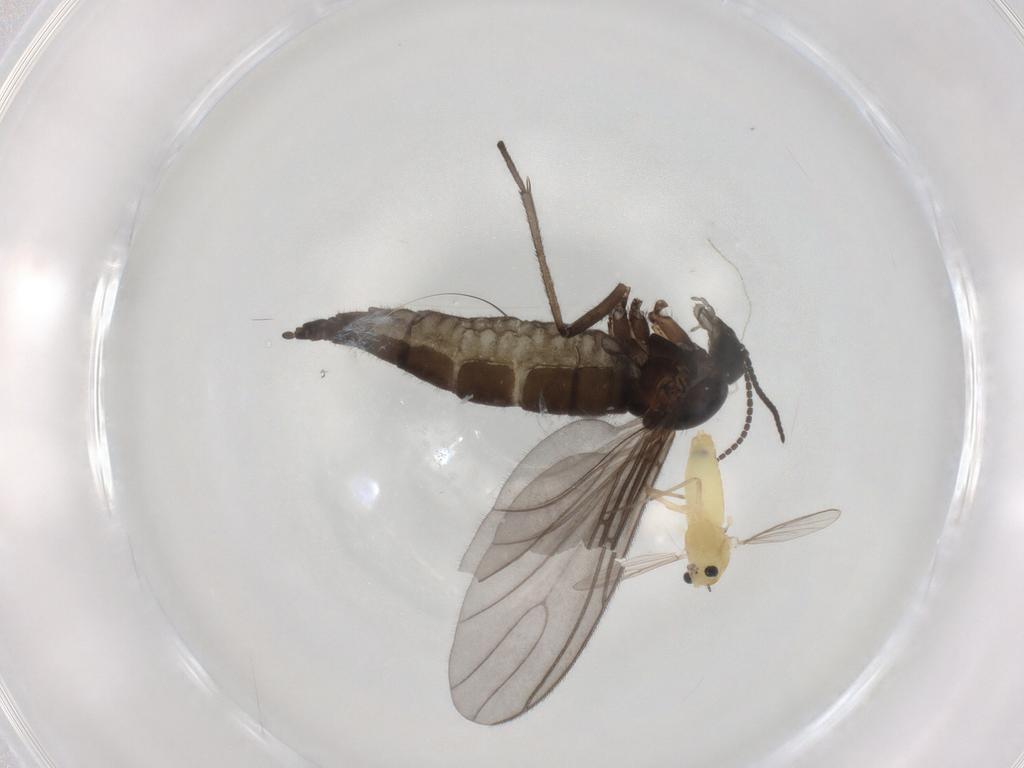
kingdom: Animalia
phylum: Arthropoda
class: Insecta
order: Diptera
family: Sciaridae
